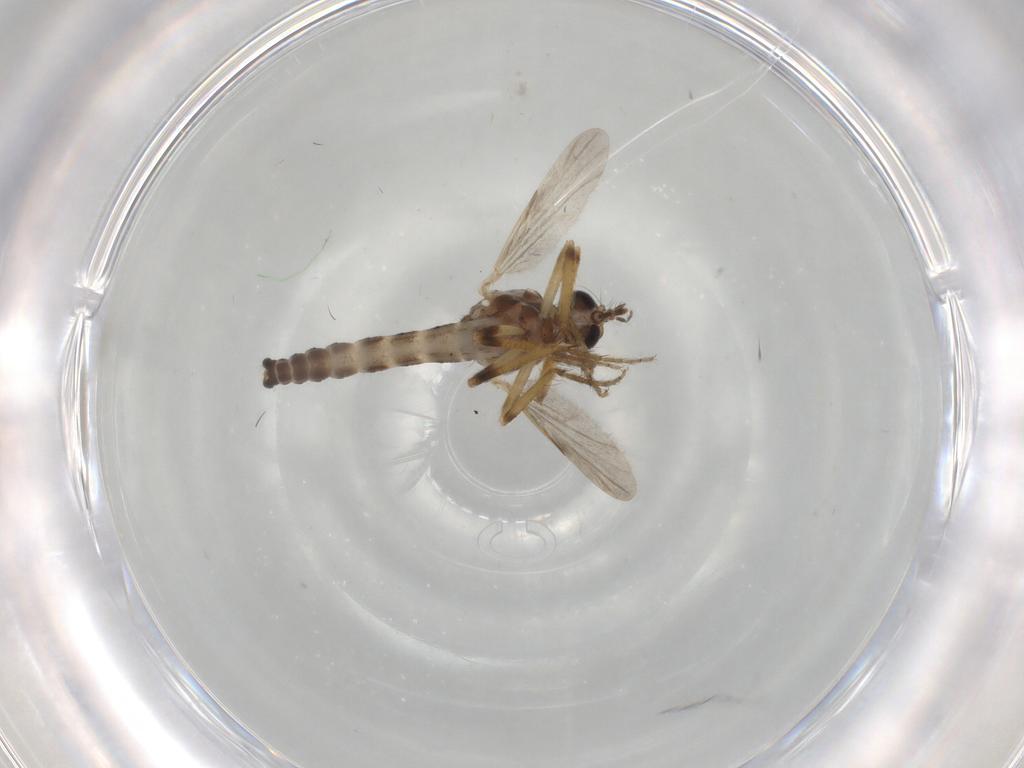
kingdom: Animalia
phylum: Arthropoda
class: Insecta
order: Diptera
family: Ceratopogonidae
